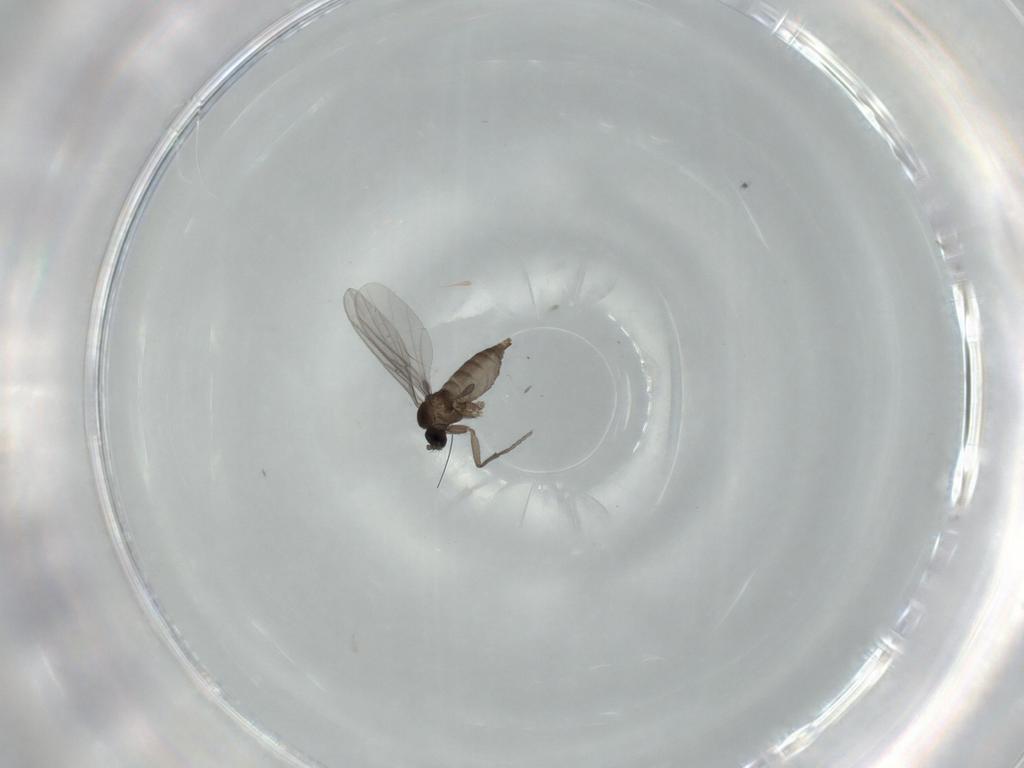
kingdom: Animalia
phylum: Arthropoda
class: Insecta
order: Diptera
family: Sciaridae
